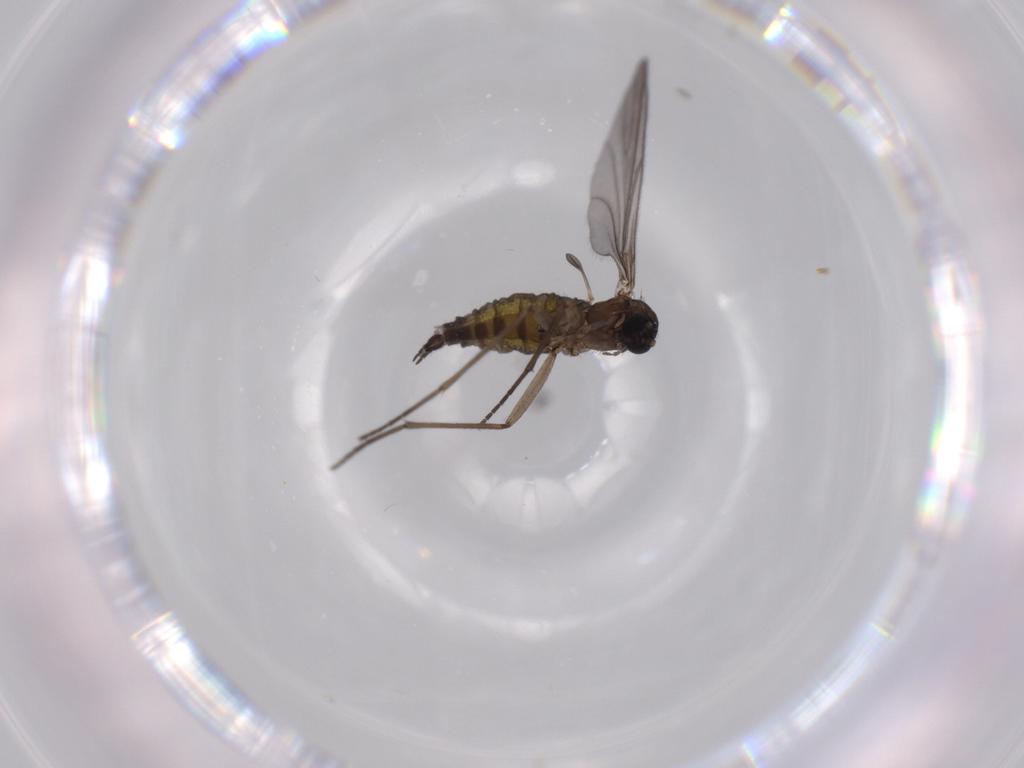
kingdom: Animalia
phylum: Arthropoda
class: Insecta
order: Diptera
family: Sciaridae
